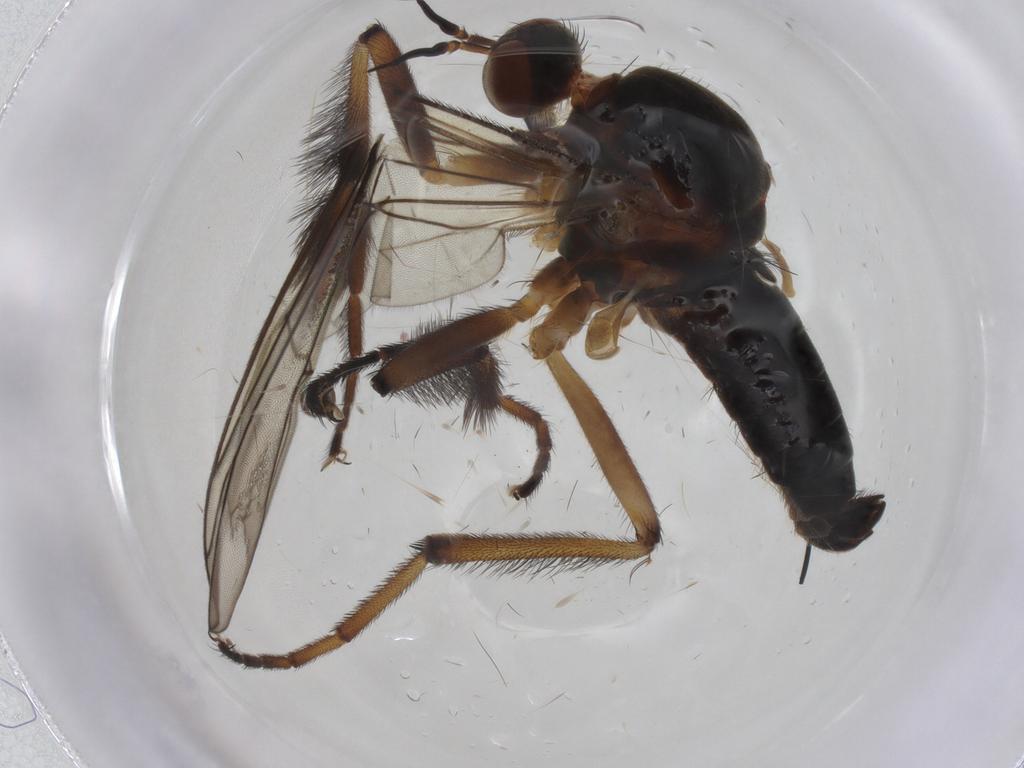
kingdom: Animalia
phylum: Arthropoda
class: Insecta
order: Diptera
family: Empididae
